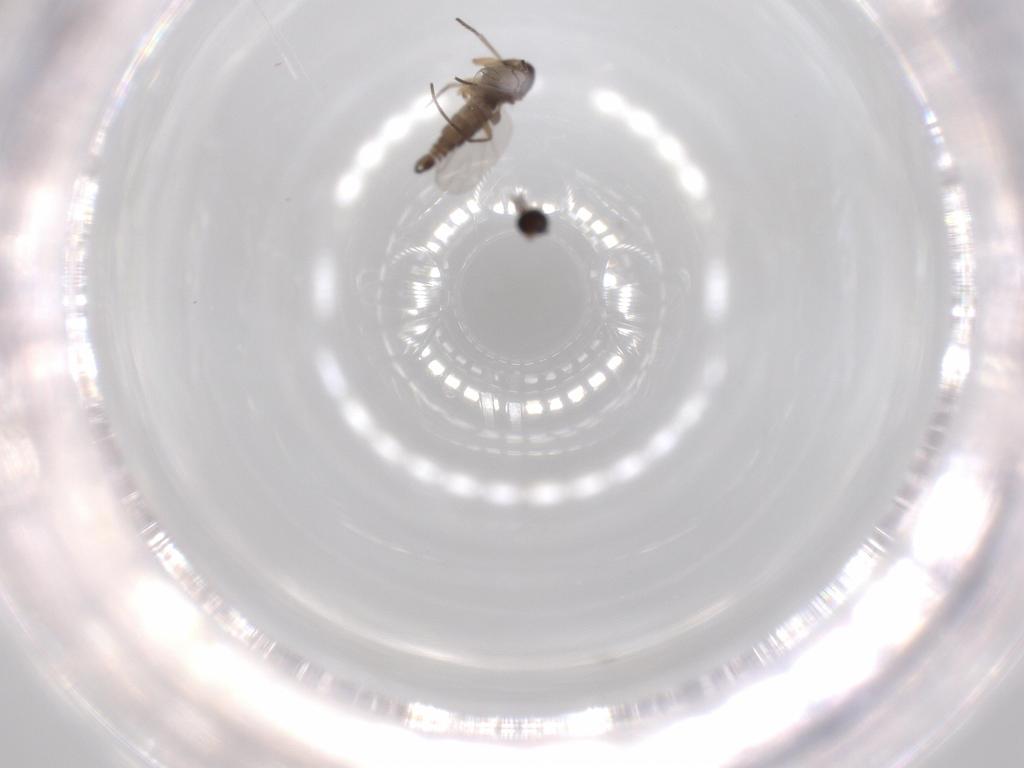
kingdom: Animalia
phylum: Arthropoda
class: Insecta
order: Diptera
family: Sciaridae
